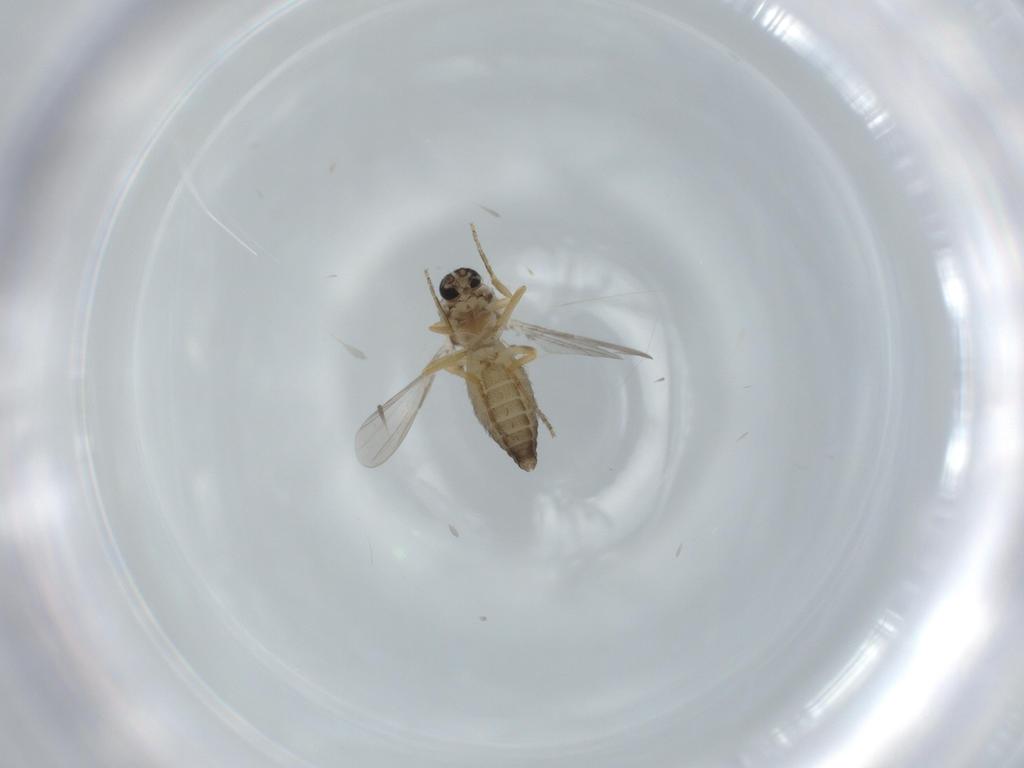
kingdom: Animalia
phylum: Arthropoda
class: Insecta
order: Diptera
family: Ceratopogonidae
